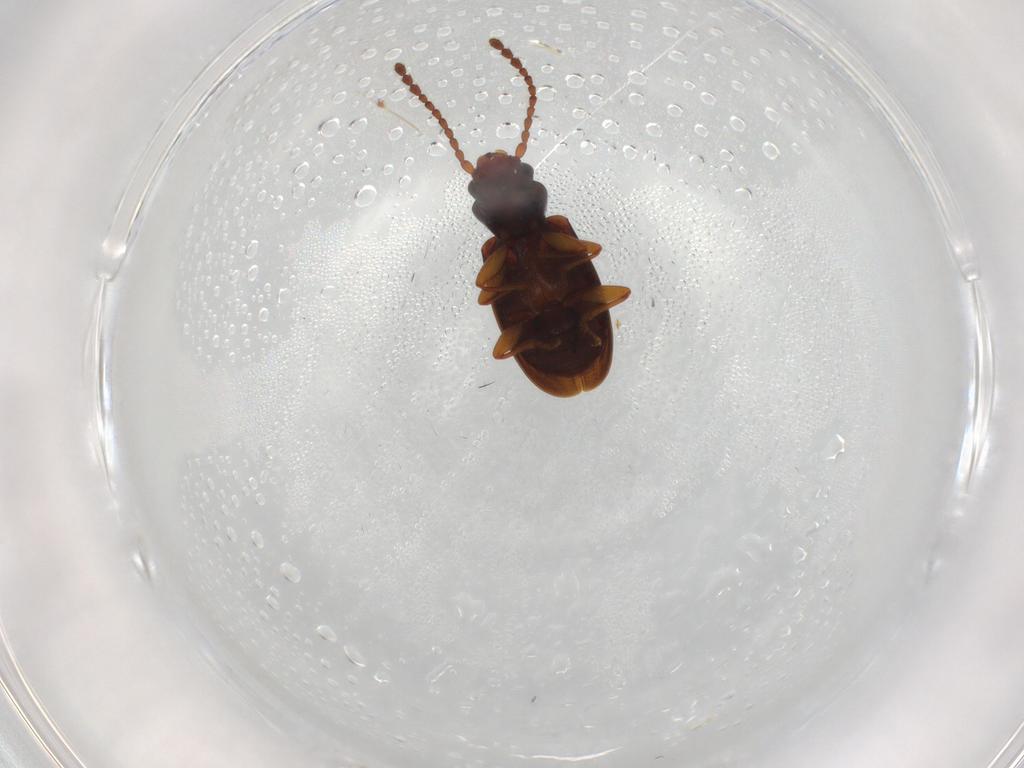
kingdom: Animalia
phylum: Arthropoda
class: Insecta
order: Coleoptera
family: Laemophloeidae
